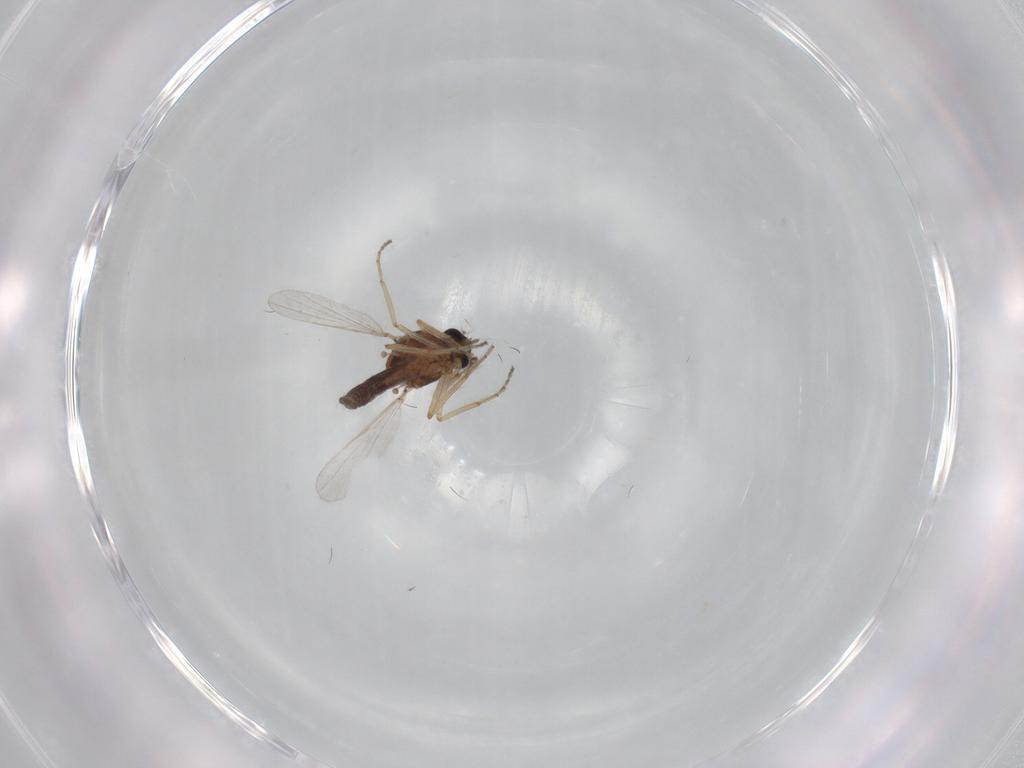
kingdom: Animalia
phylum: Arthropoda
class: Insecta
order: Diptera
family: Ceratopogonidae
